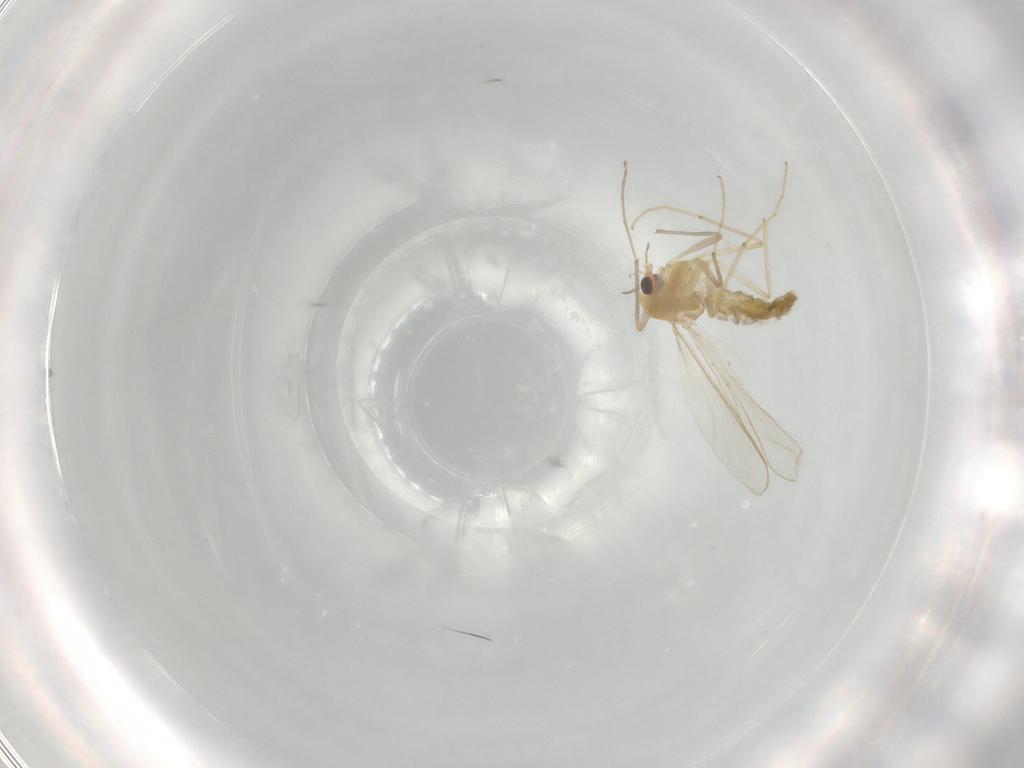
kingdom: Animalia
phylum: Arthropoda
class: Insecta
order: Diptera
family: Chironomidae
